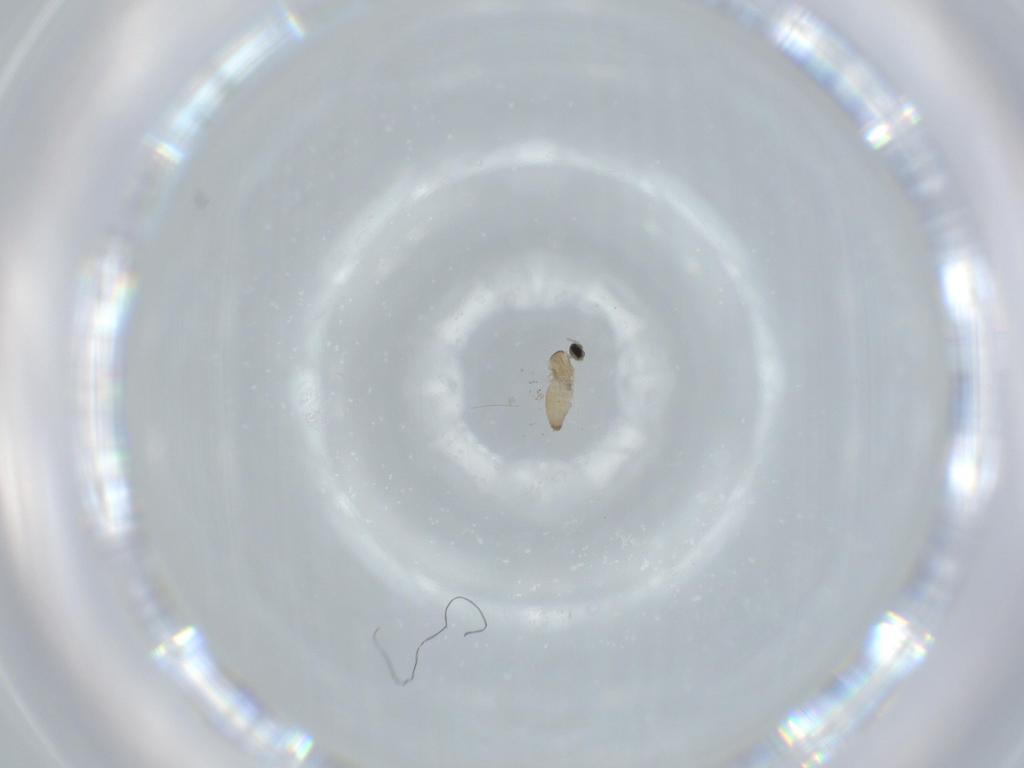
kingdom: Animalia
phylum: Arthropoda
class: Insecta
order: Diptera
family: Cecidomyiidae
